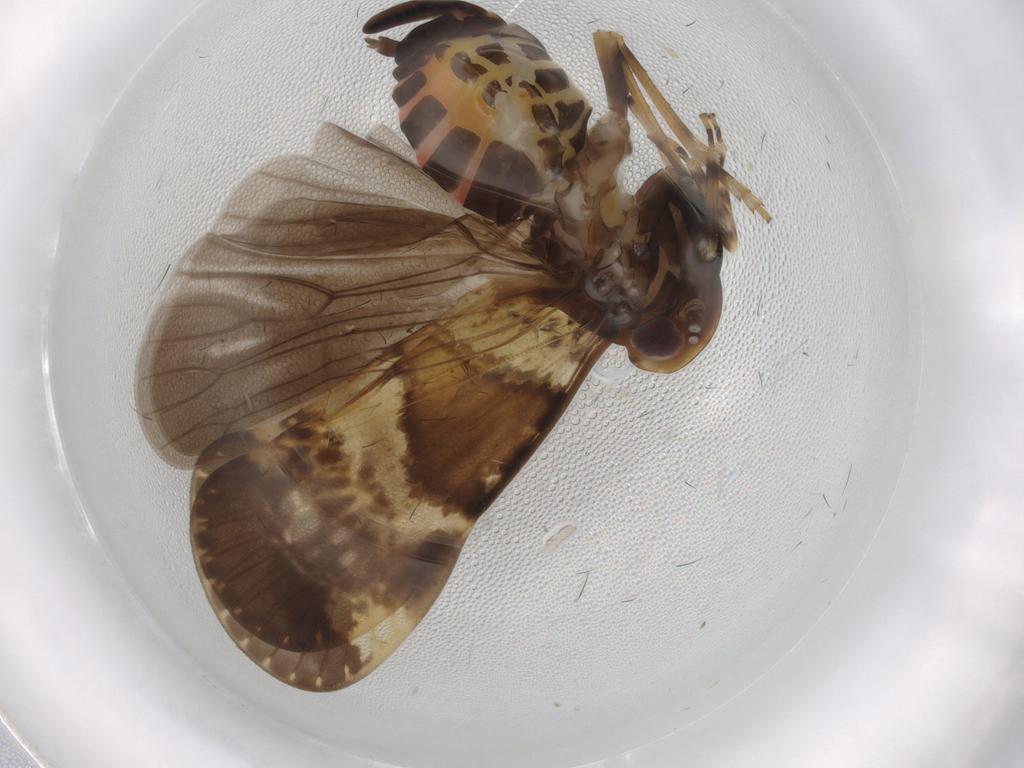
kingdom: Animalia
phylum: Arthropoda
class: Insecta
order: Hemiptera
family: Cixiidae
